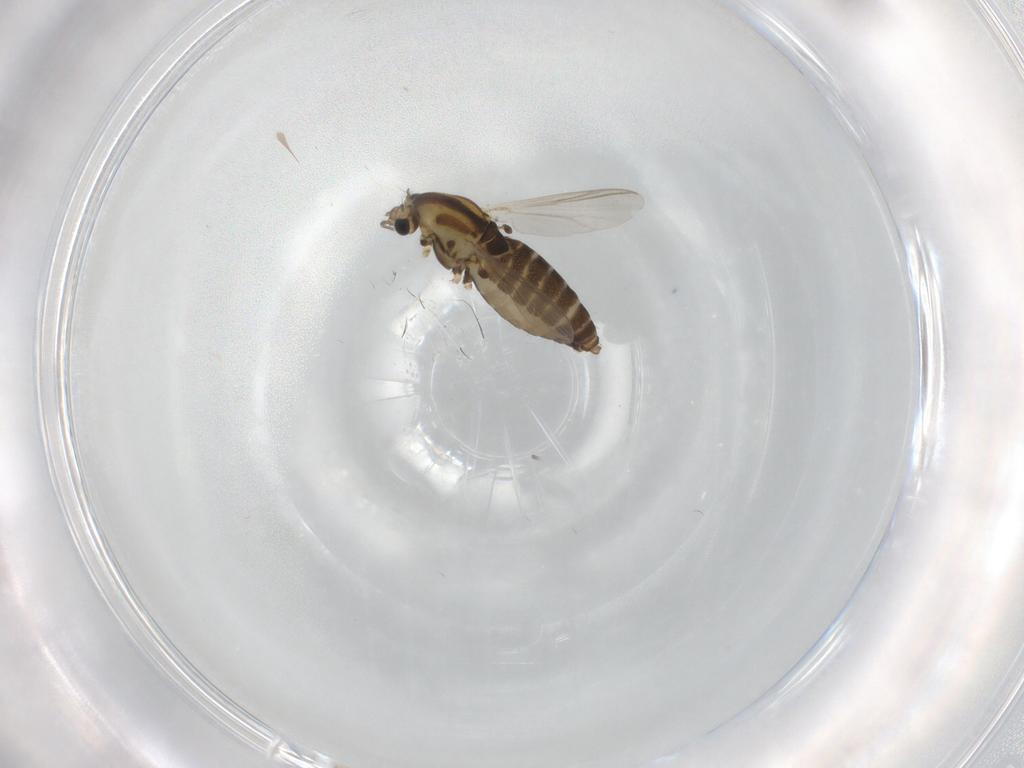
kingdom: Animalia
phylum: Arthropoda
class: Insecta
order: Diptera
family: Chironomidae
